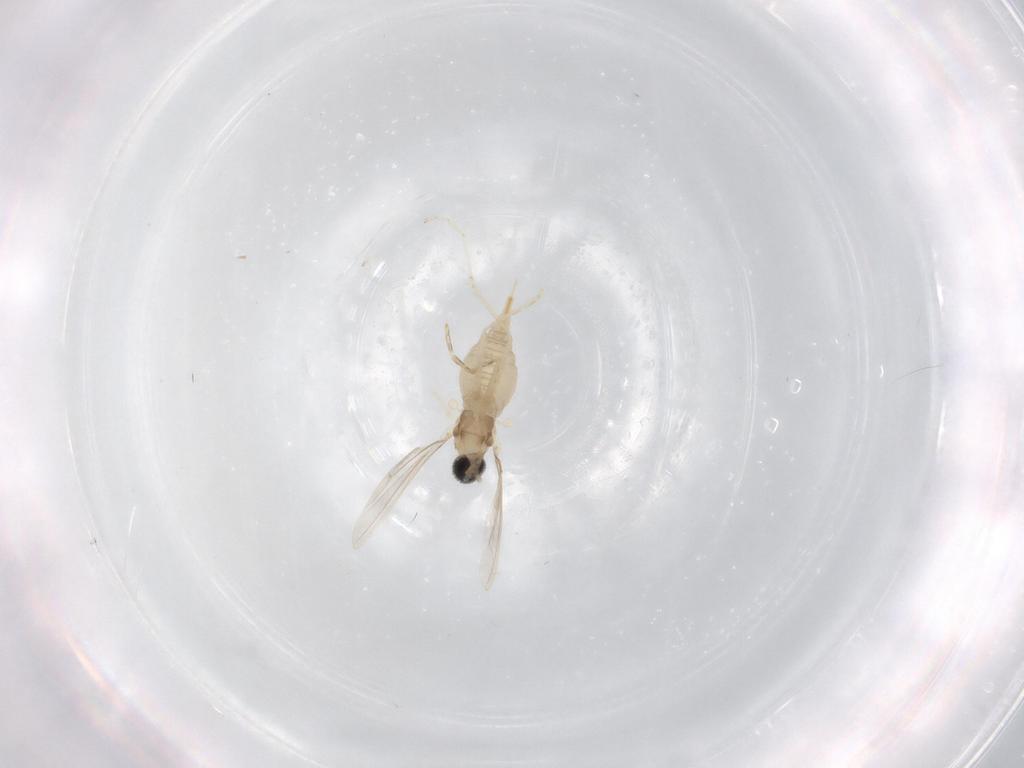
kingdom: Animalia
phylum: Arthropoda
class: Insecta
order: Diptera
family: Cecidomyiidae
